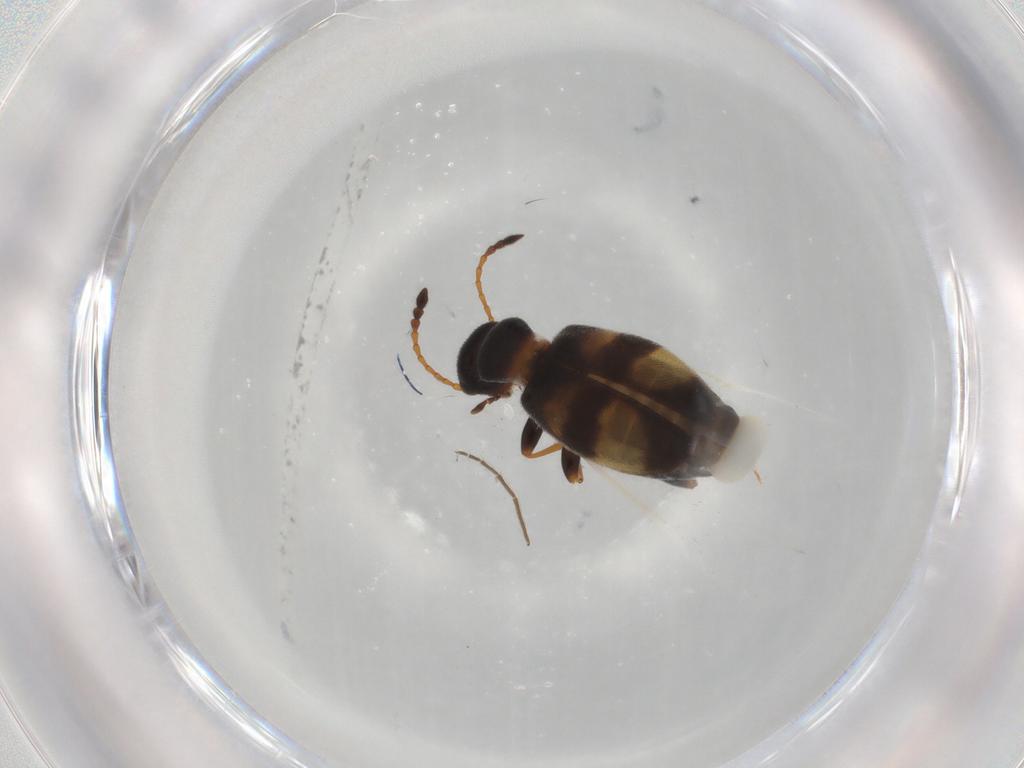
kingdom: Animalia
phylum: Arthropoda
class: Insecta
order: Coleoptera
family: Anthicidae
